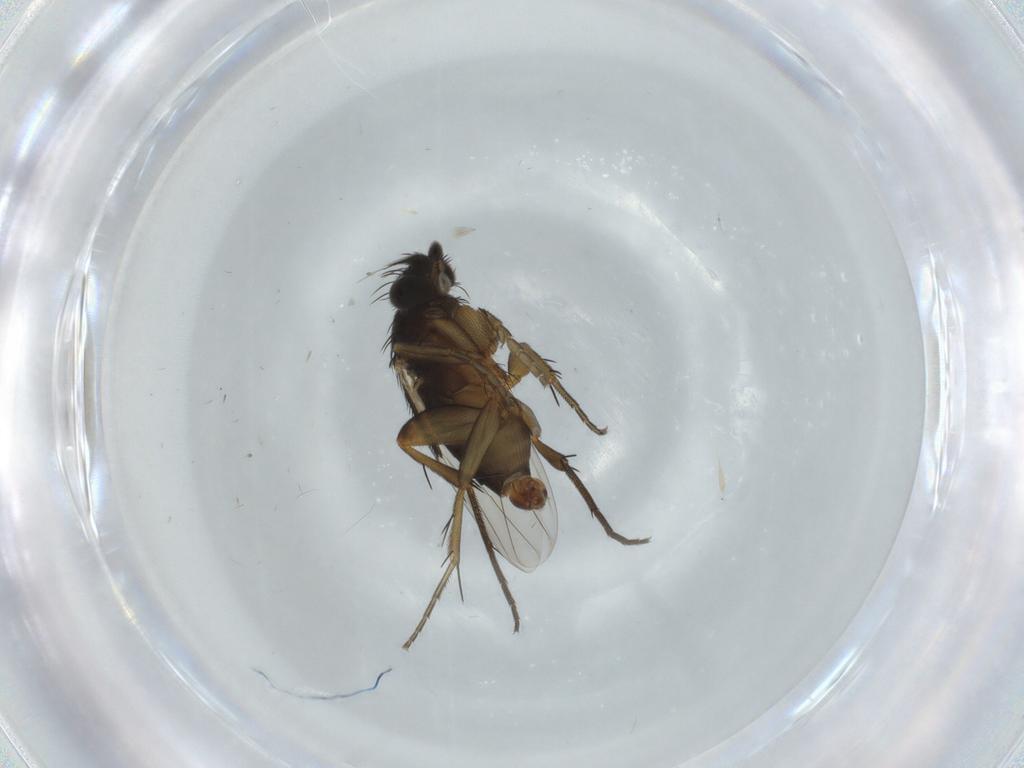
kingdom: Animalia
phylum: Arthropoda
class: Insecta
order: Diptera
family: Phoridae
